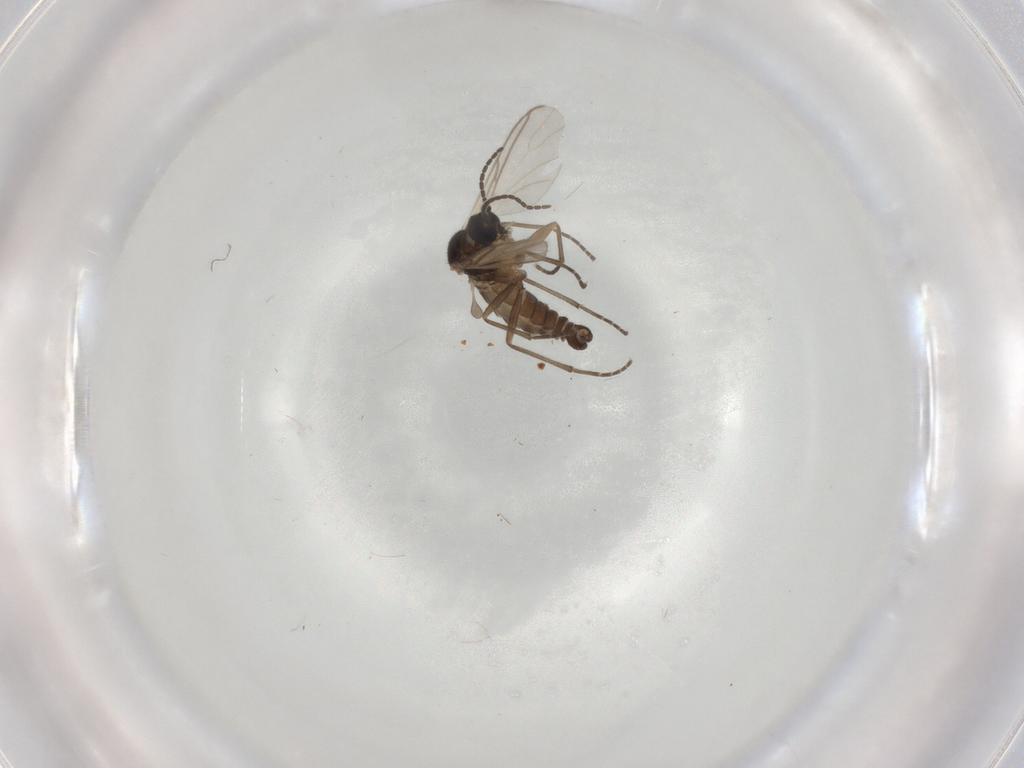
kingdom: Animalia
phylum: Arthropoda
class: Insecta
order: Diptera
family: Chironomidae
